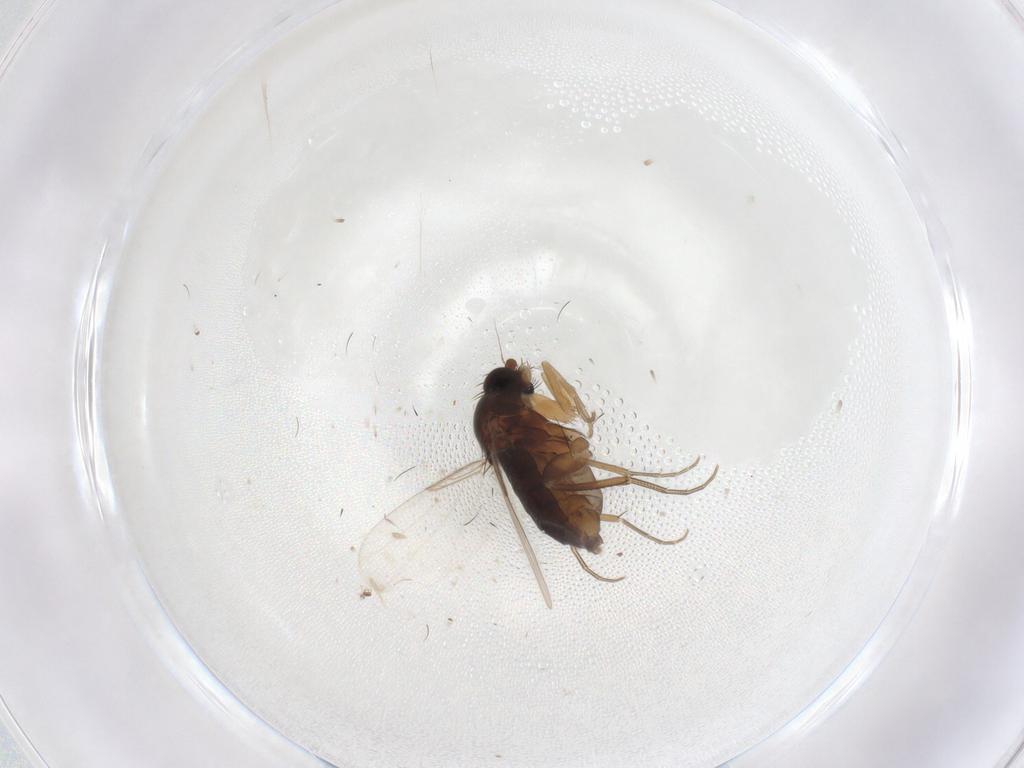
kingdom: Animalia
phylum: Arthropoda
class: Insecta
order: Diptera
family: Phoridae
